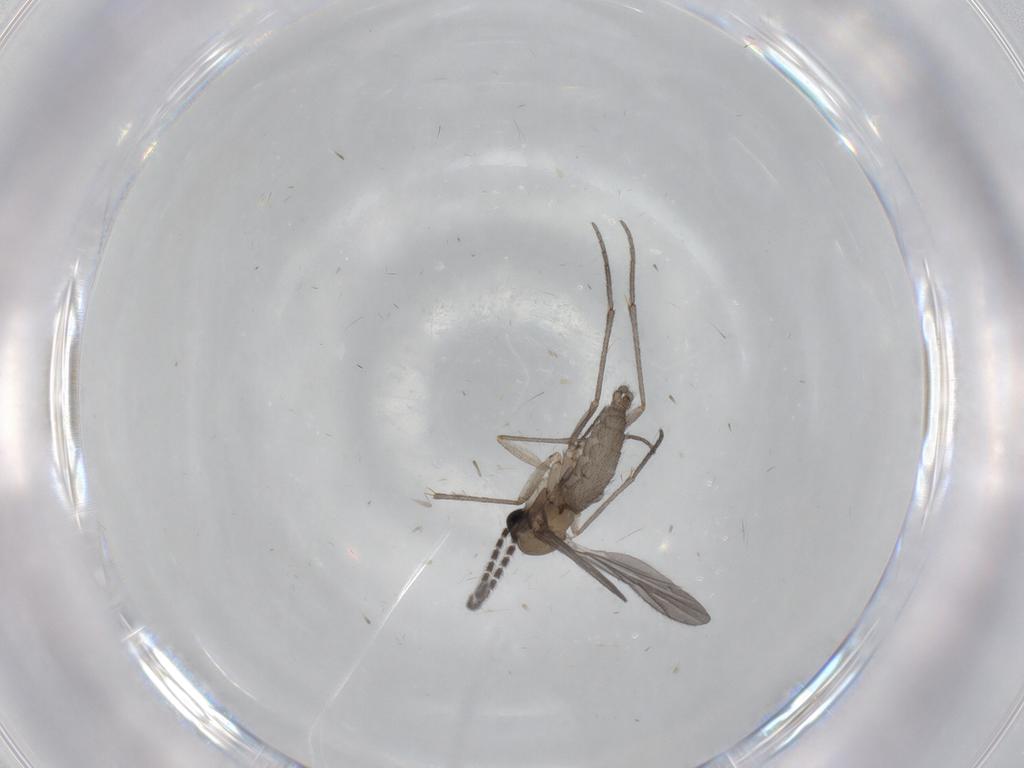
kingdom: Animalia
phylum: Arthropoda
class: Insecta
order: Diptera
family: Sciaridae
